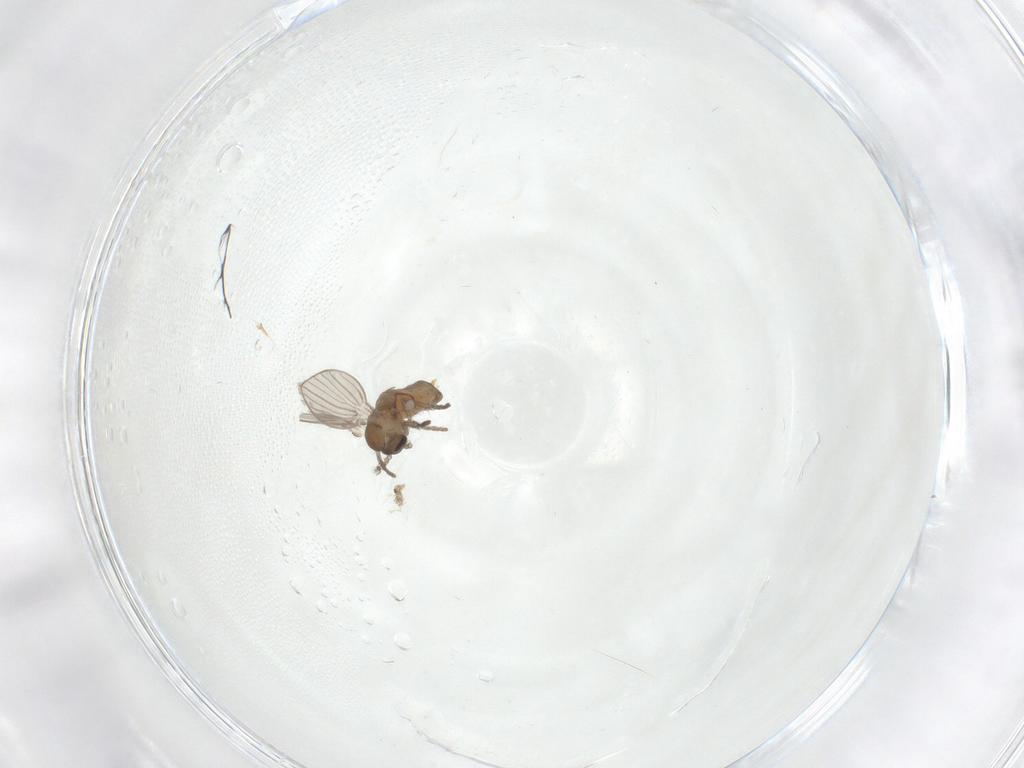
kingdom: Animalia
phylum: Arthropoda
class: Insecta
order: Diptera
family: Psychodidae
